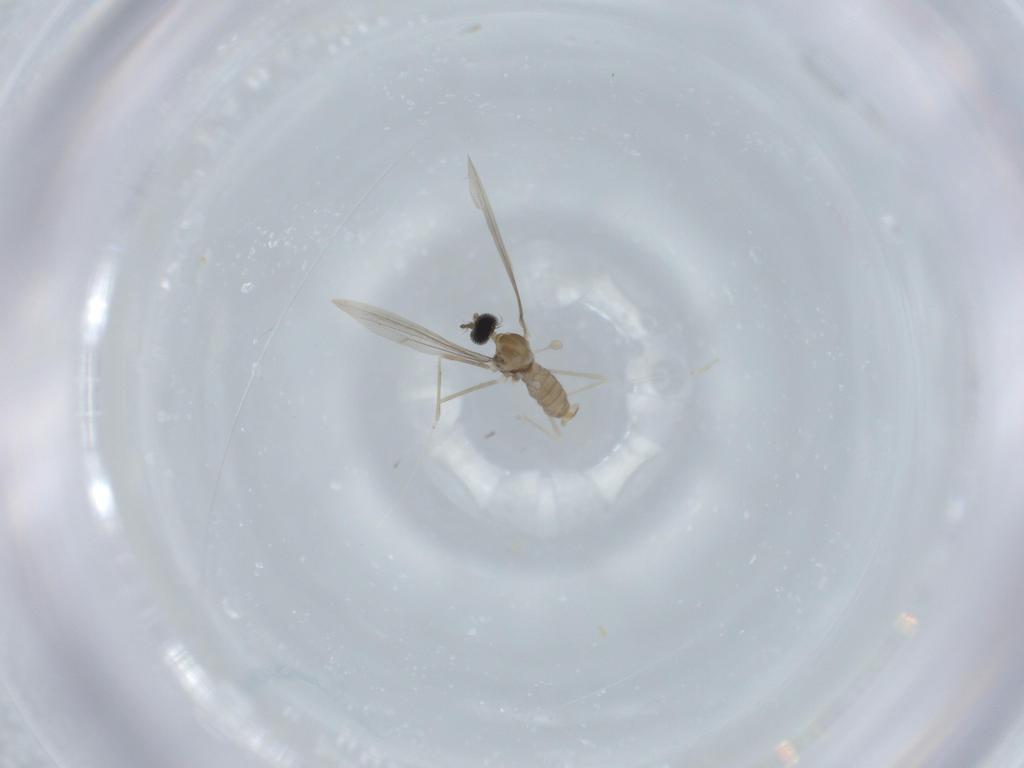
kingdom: Animalia
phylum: Arthropoda
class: Insecta
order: Diptera
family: Cecidomyiidae
